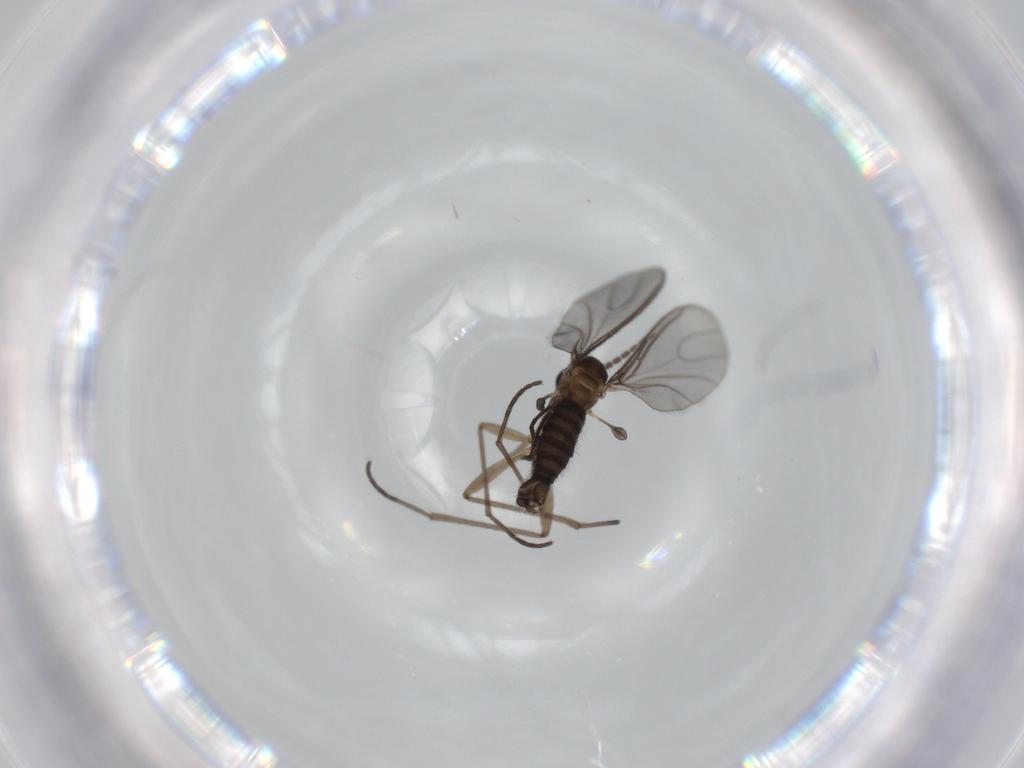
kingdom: Animalia
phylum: Arthropoda
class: Insecta
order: Diptera
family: Sciaridae
